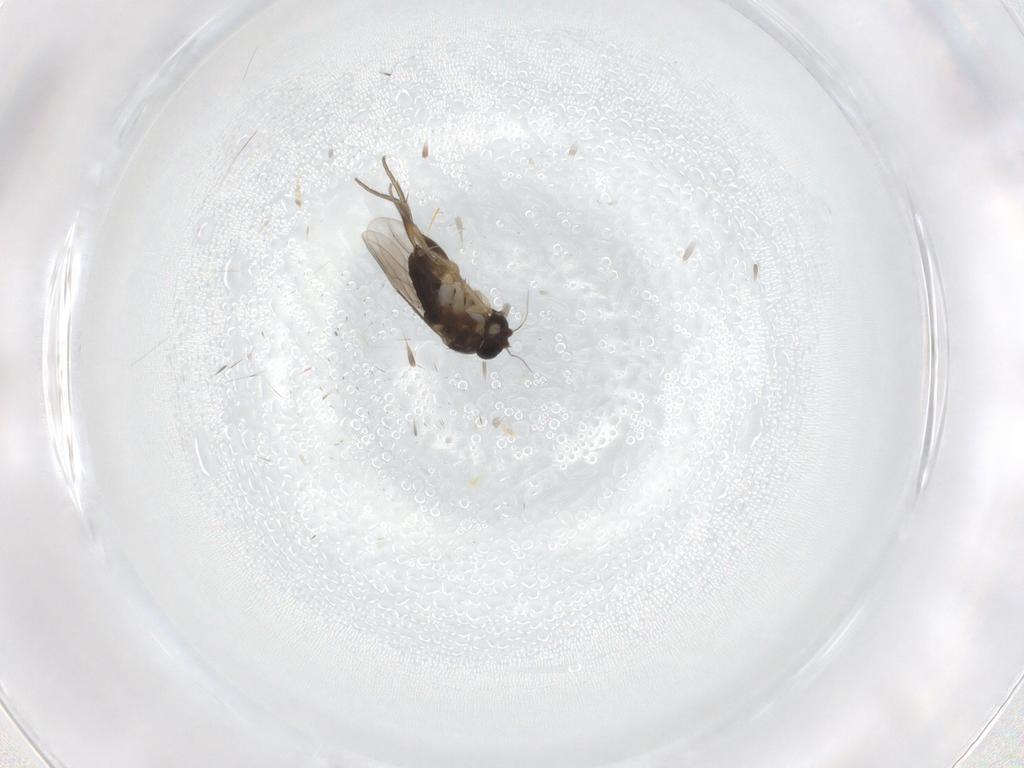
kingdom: Animalia
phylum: Arthropoda
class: Insecta
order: Diptera
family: Phoridae
